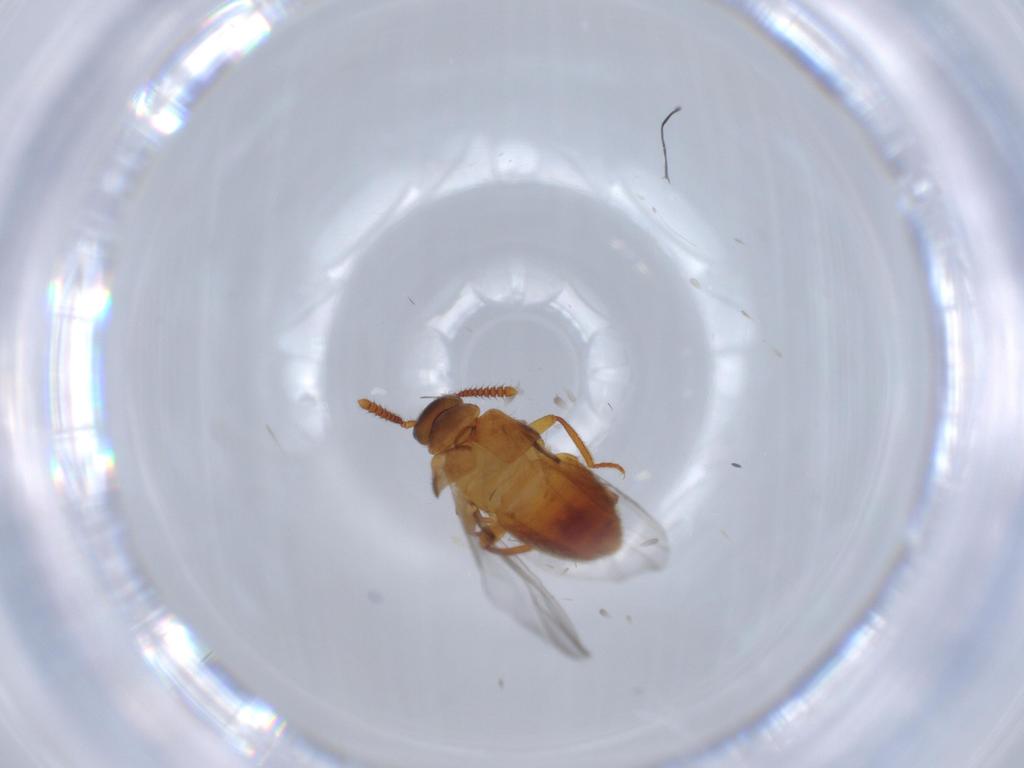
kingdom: Animalia
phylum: Arthropoda
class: Insecta
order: Coleoptera
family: Staphylinidae
